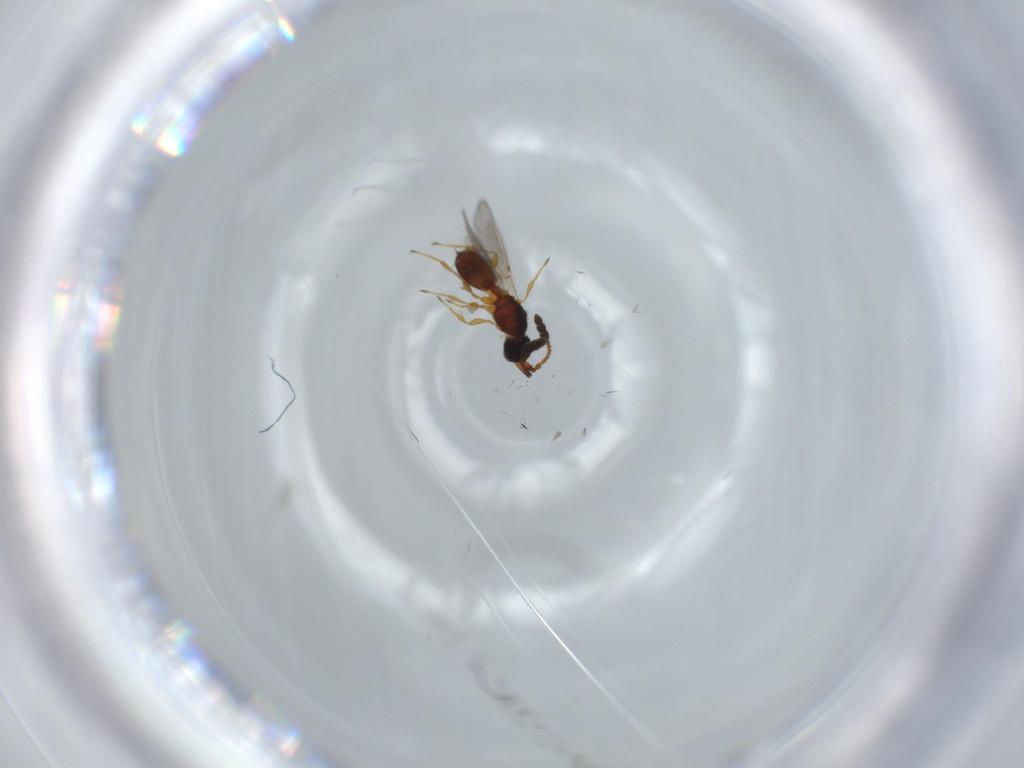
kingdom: Animalia
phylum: Arthropoda
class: Insecta
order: Hymenoptera
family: Diapriidae
